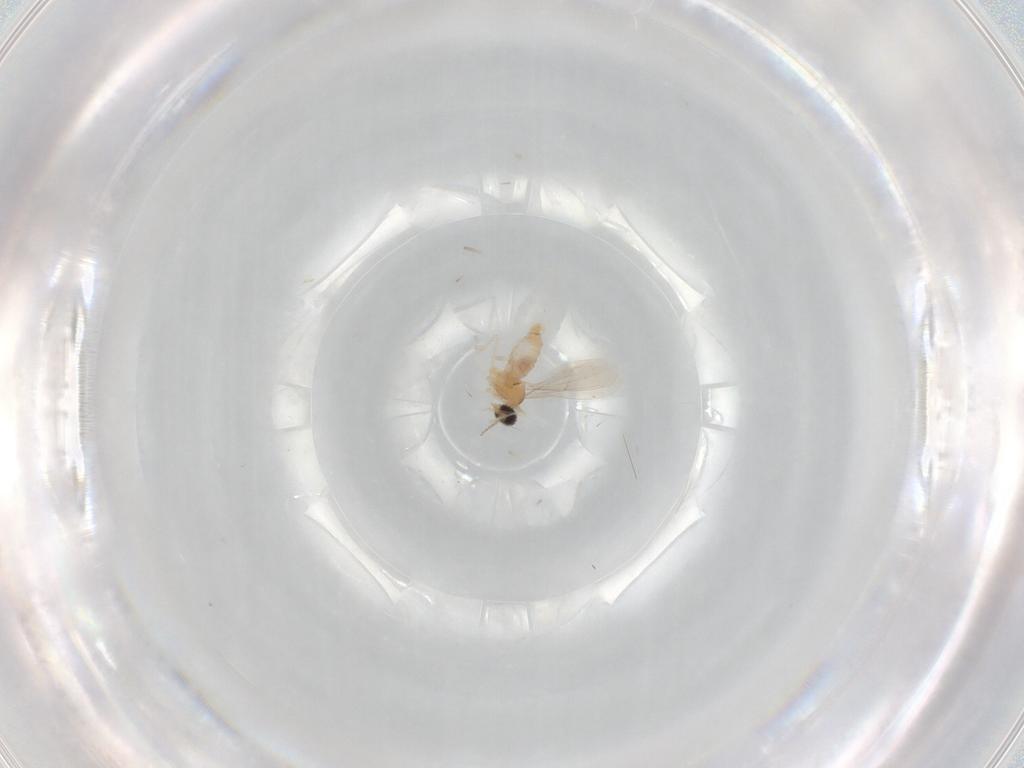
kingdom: Animalia
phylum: Arthropoda
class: Insecta
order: Diptera
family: Cecidomyiidae
